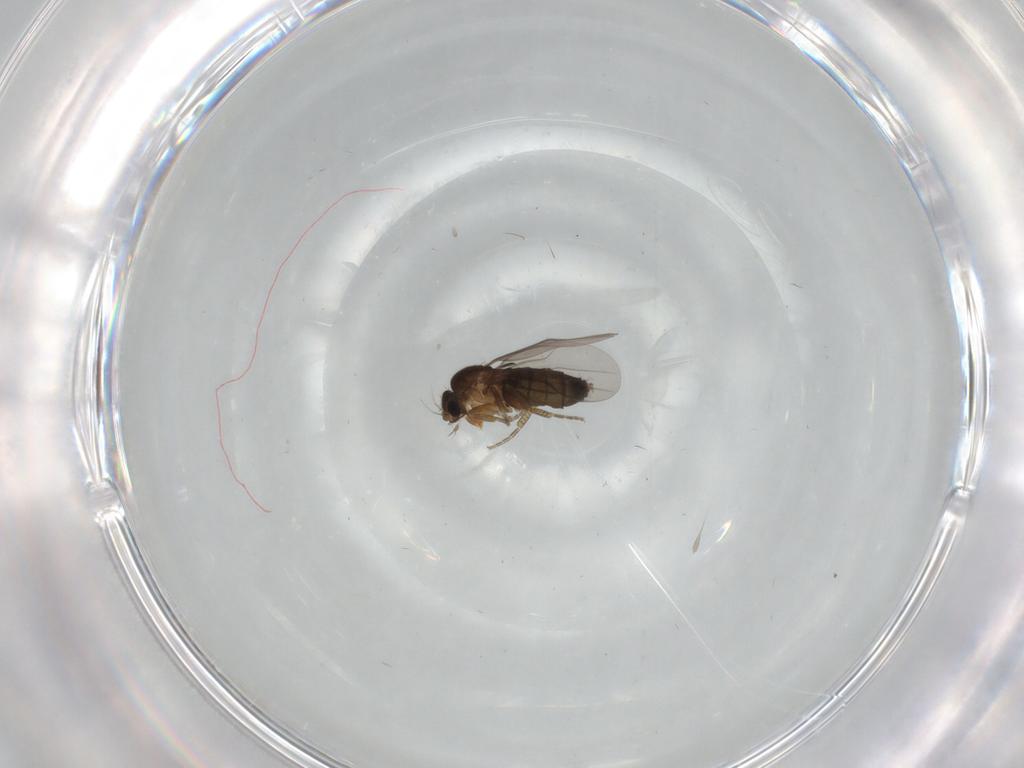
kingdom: Animalia
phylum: Arthropoda
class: Insecta
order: Diptera
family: Phoridae
